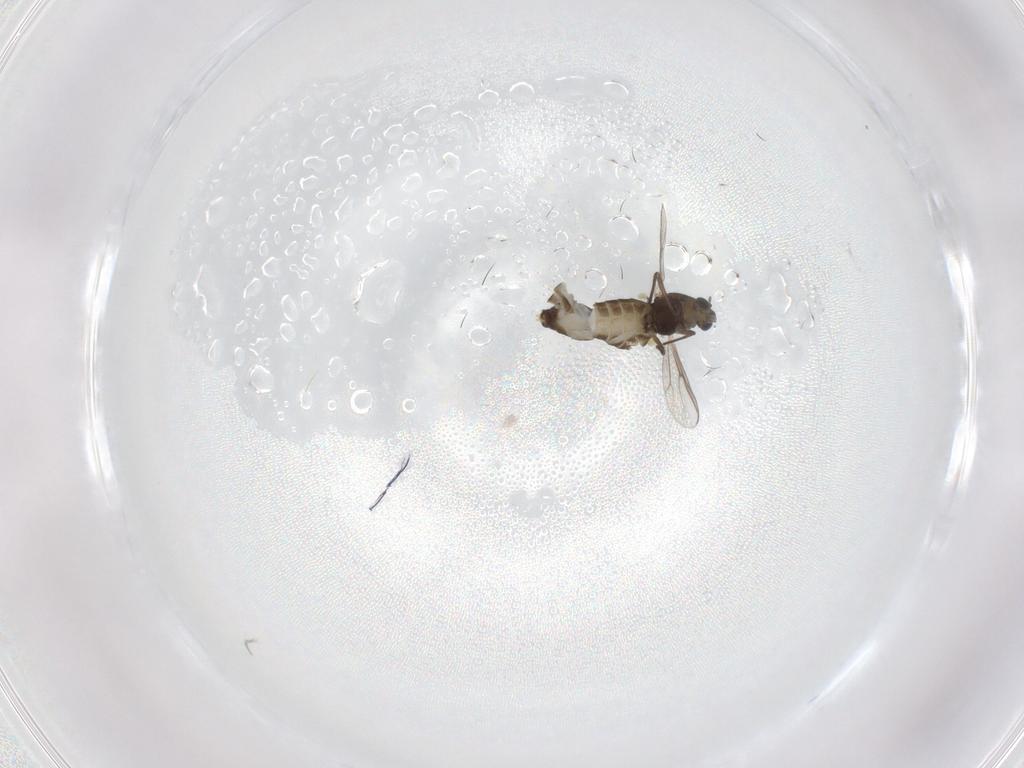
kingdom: Animalia
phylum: Arthropoda
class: Insecta
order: Diptera
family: Chironomidae
